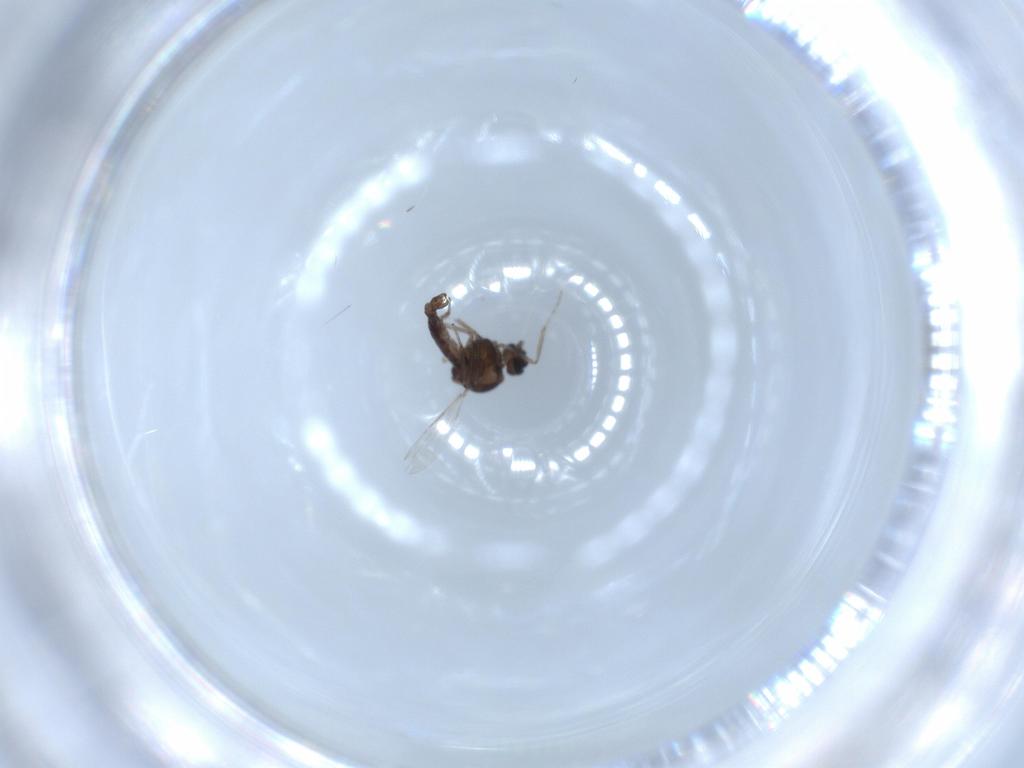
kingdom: Animalia
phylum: Arthropoda
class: Insecta
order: Diptera
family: Ceratopogonidae
